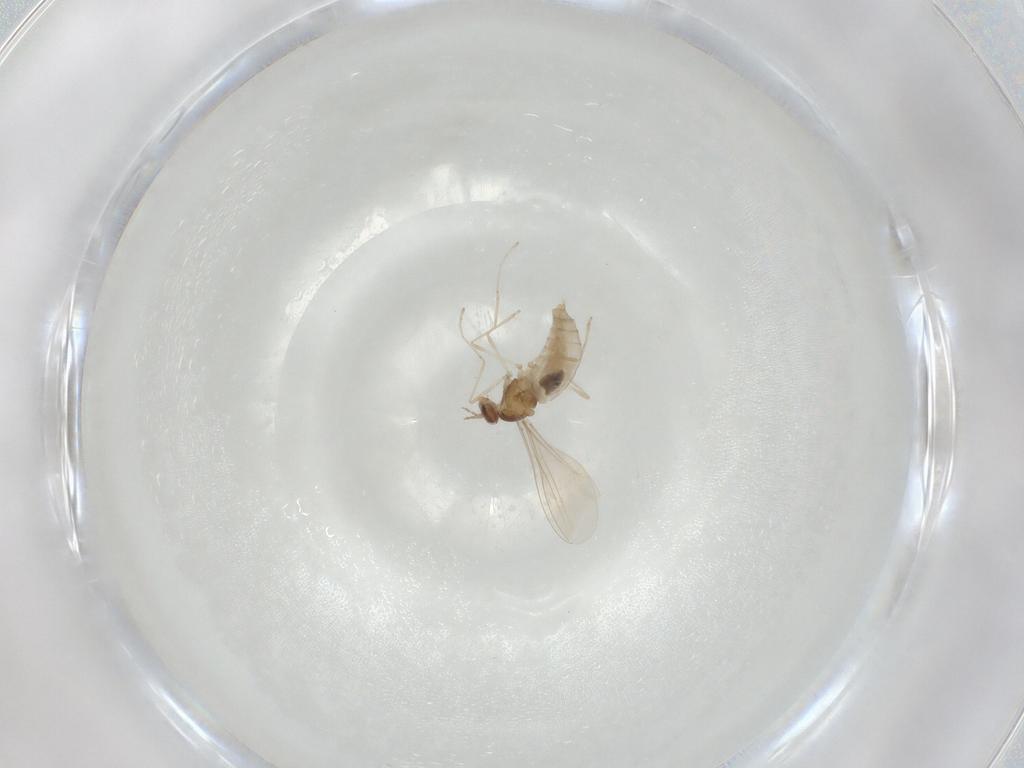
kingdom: Animalia
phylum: Arthropoda
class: Insecta
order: Diptera
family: Cecidomyiidae
